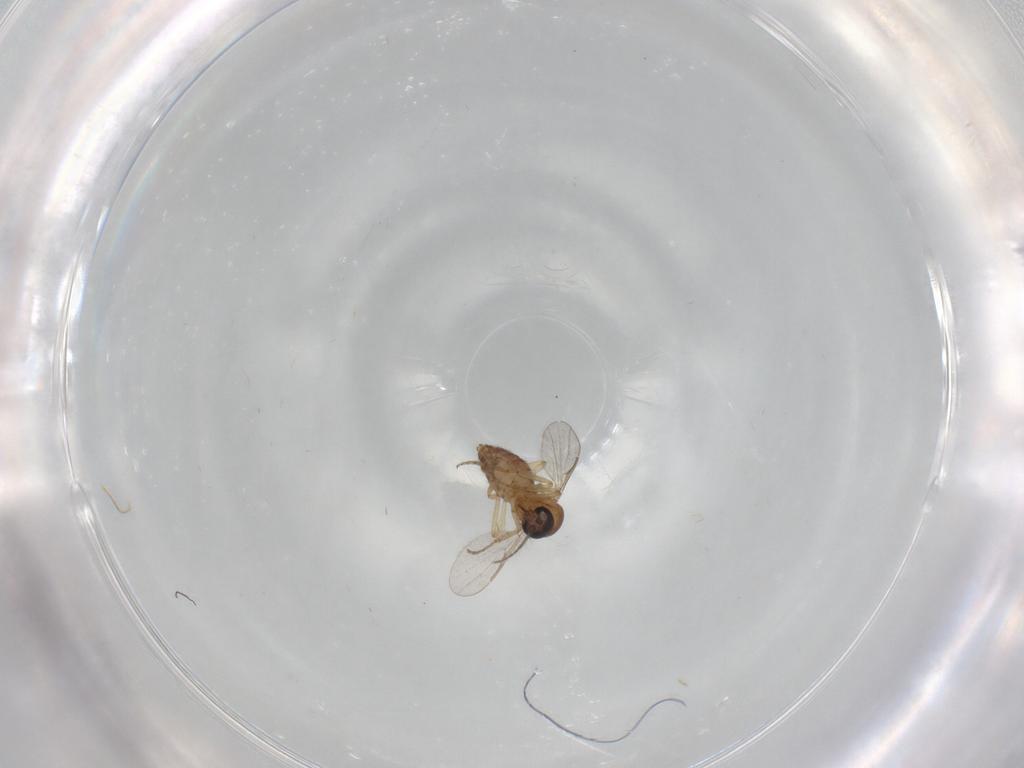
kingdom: Animalia
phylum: Arthropoda
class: Insecta
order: Diptera
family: Ceratopogonidae
